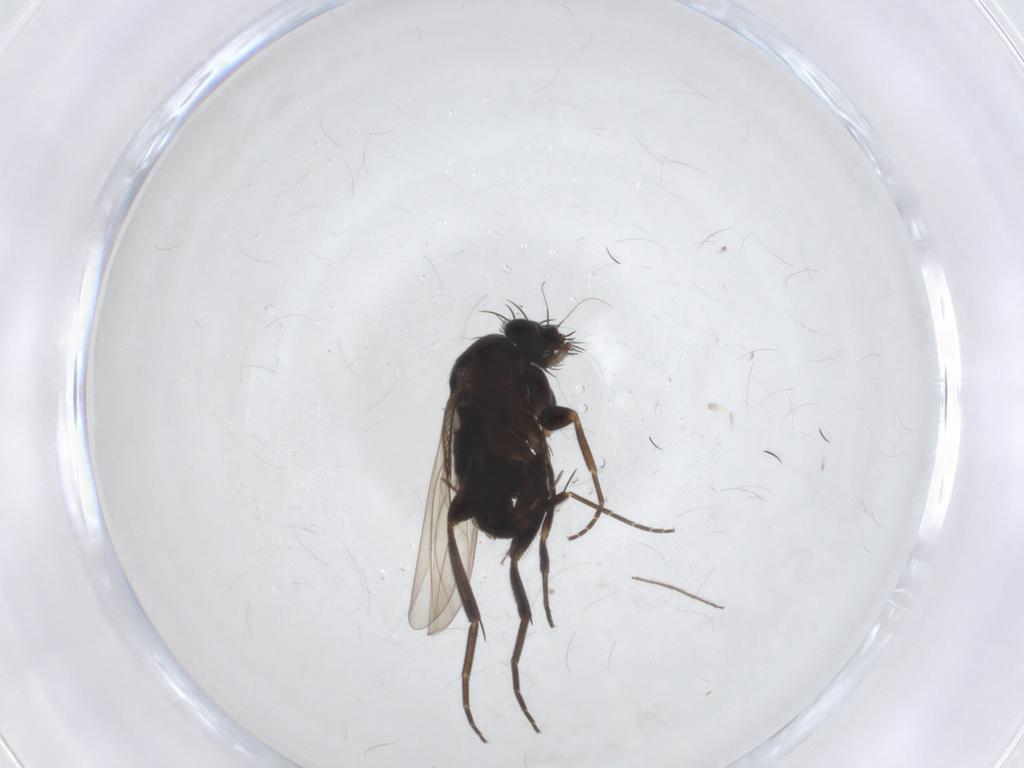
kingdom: Animalia
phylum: Arthropoda
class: Insecta
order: Diptera
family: Phoridae
